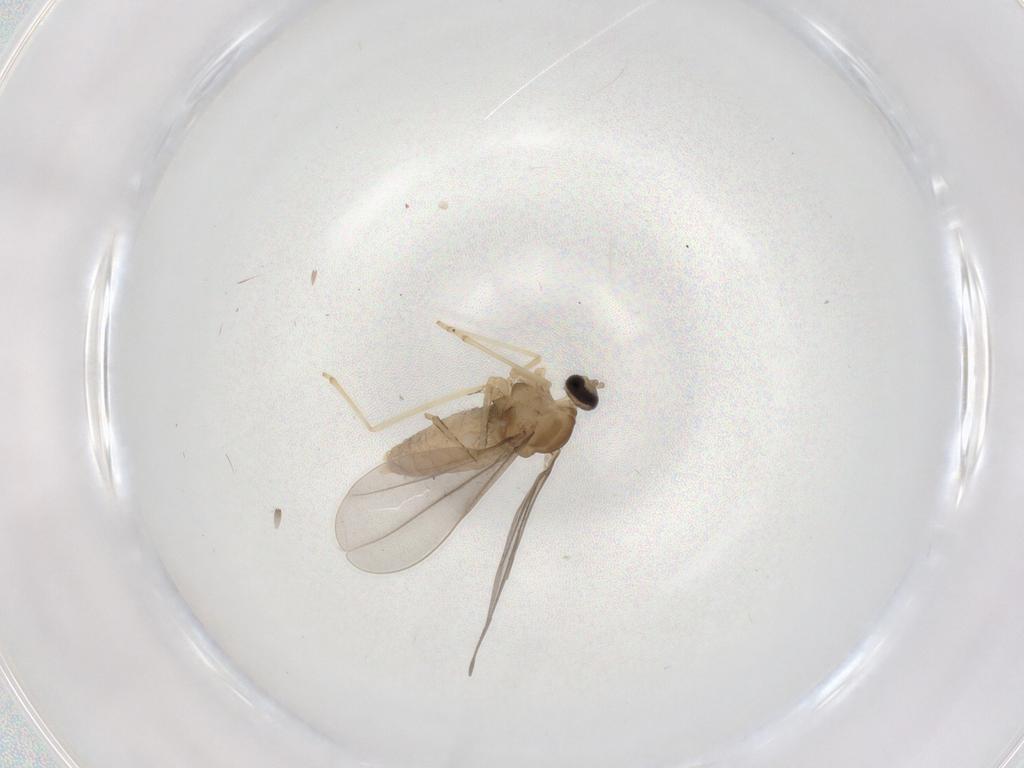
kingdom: Animalia
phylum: Arthropoda
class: Insecta
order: Diptera
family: Cecidomyiidae
